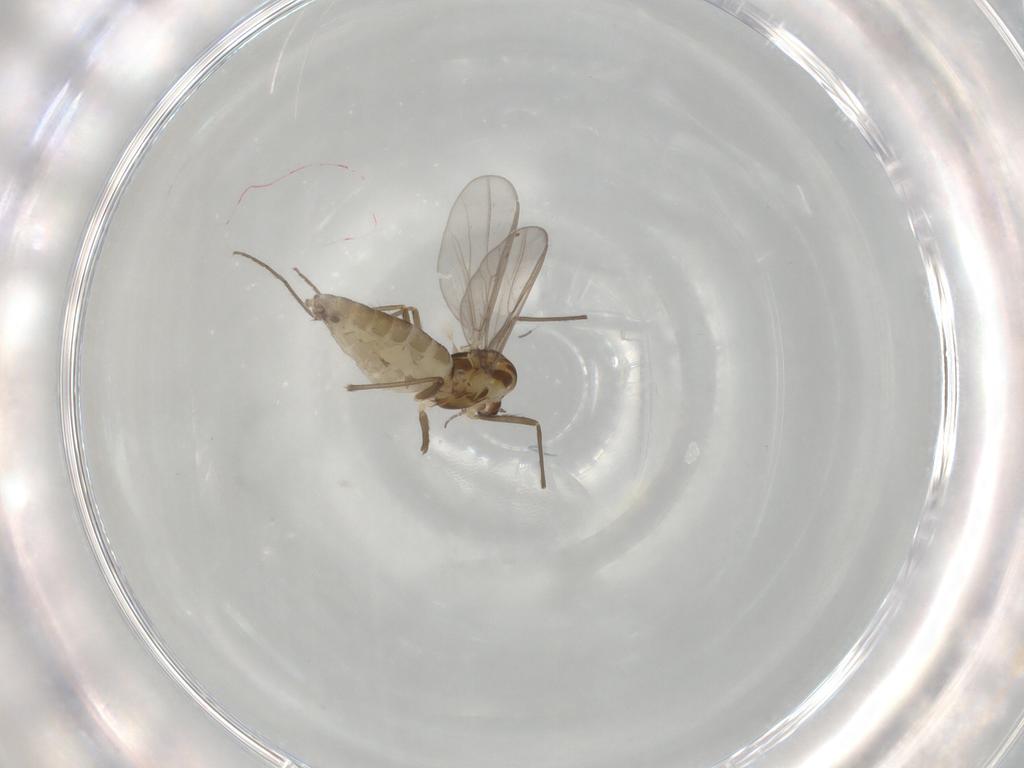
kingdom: Animalia
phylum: Arthropoda
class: Insecta
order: Diptera
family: Chironomidae
